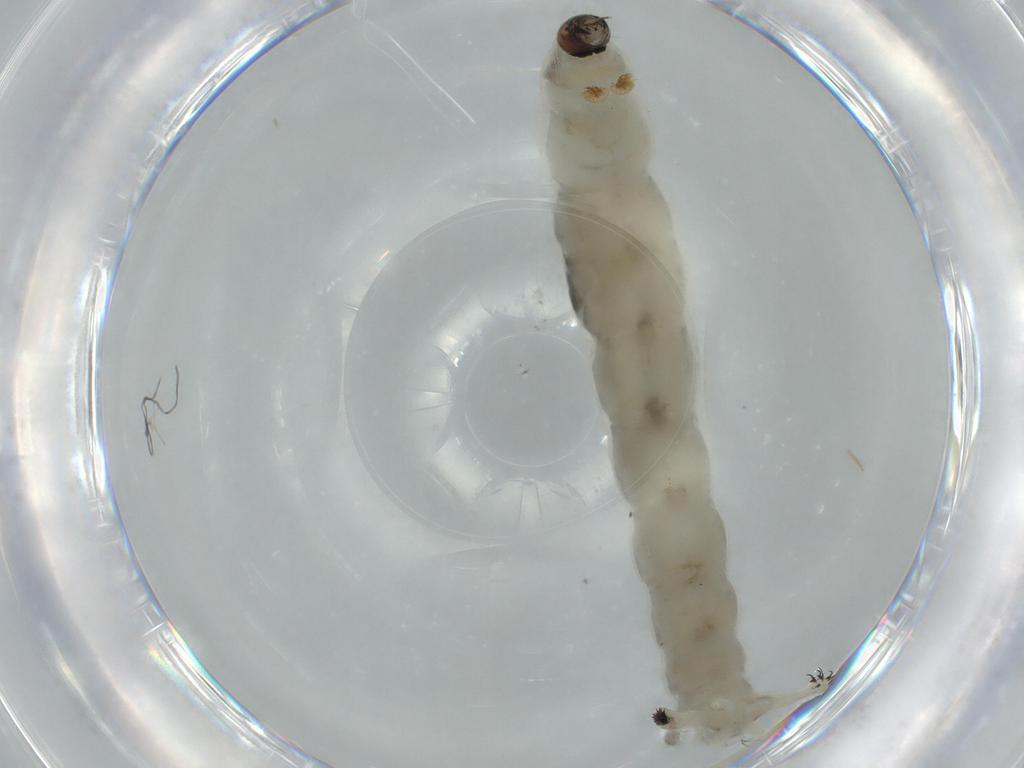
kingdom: Animalia
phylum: Arthropoda
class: Insecta
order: Diptera
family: Chironomidae
